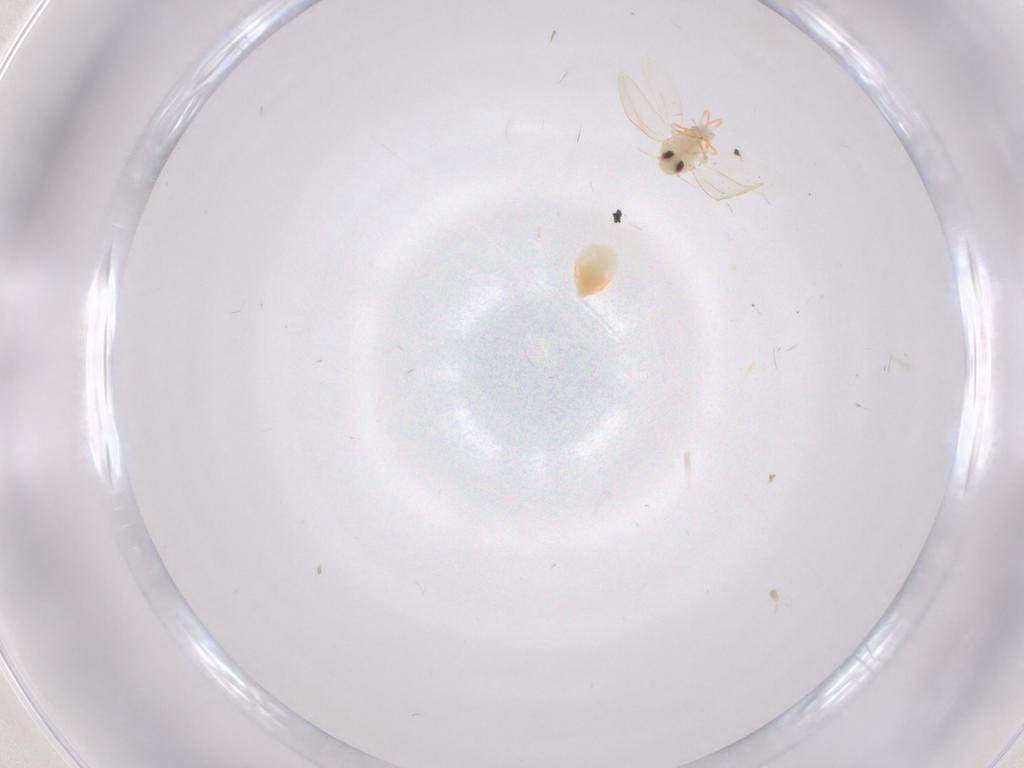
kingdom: Animalia
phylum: Arthropoda
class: Insecta
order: Hemiptera
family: Aleyrodidae
